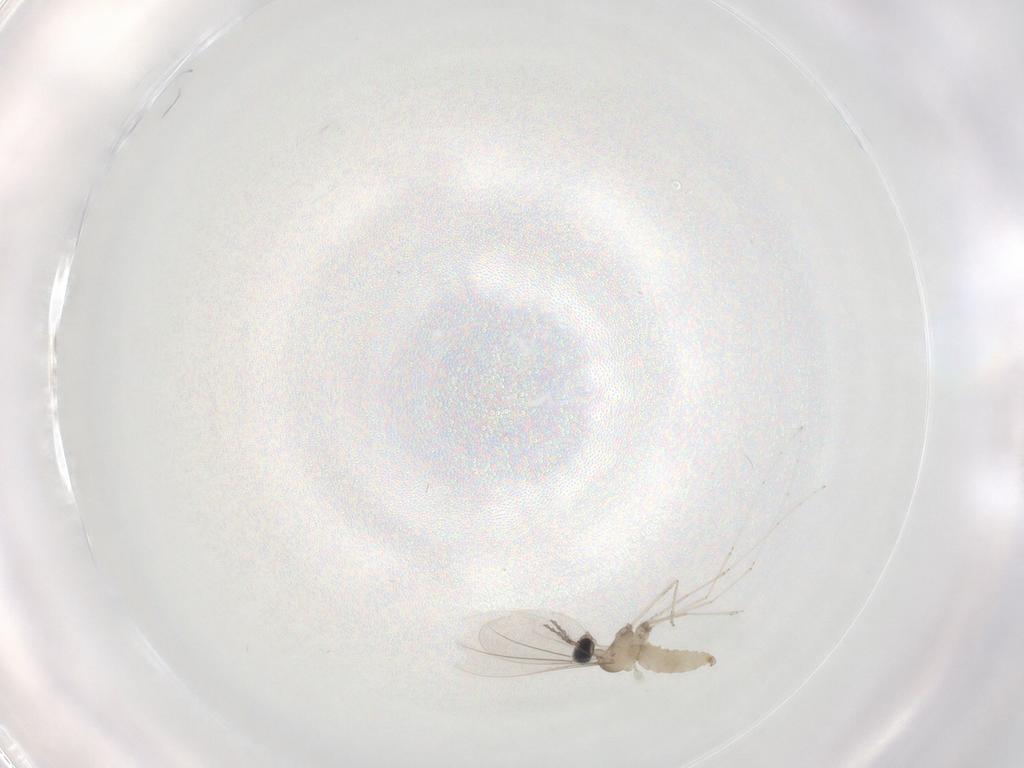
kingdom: Animalia
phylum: Arthropoda
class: Insecta
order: Diptera
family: Cecidomyiidae
